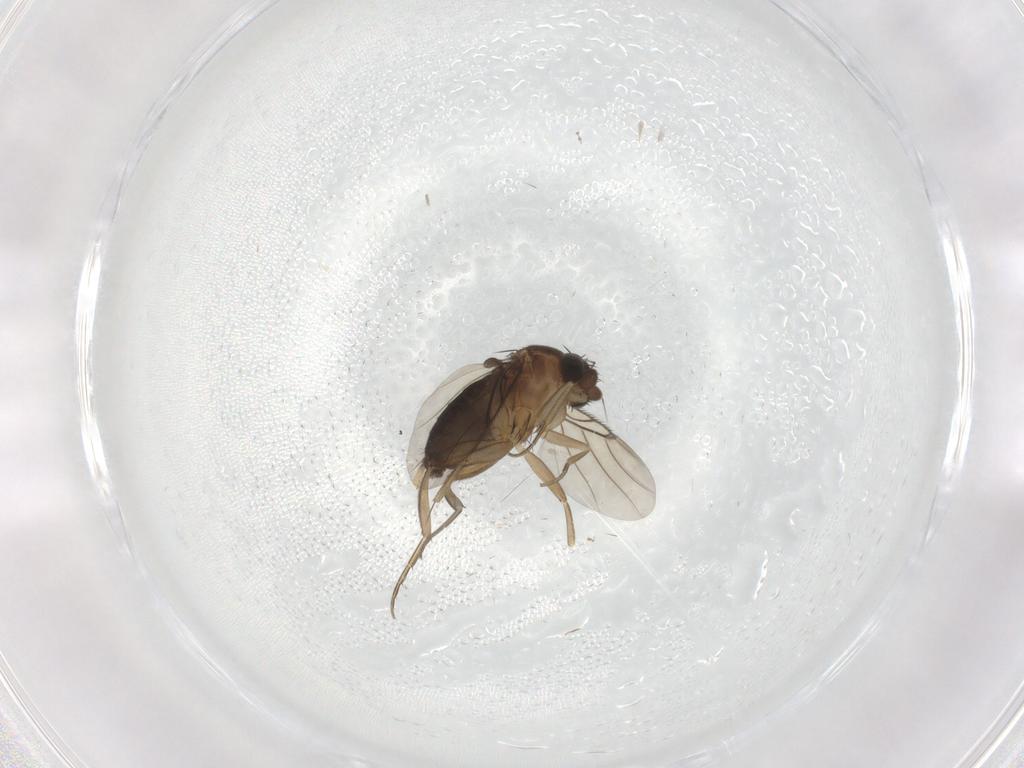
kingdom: Animalia
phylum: Arthropoda
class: Insecta
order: Diptera
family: Phoridae
